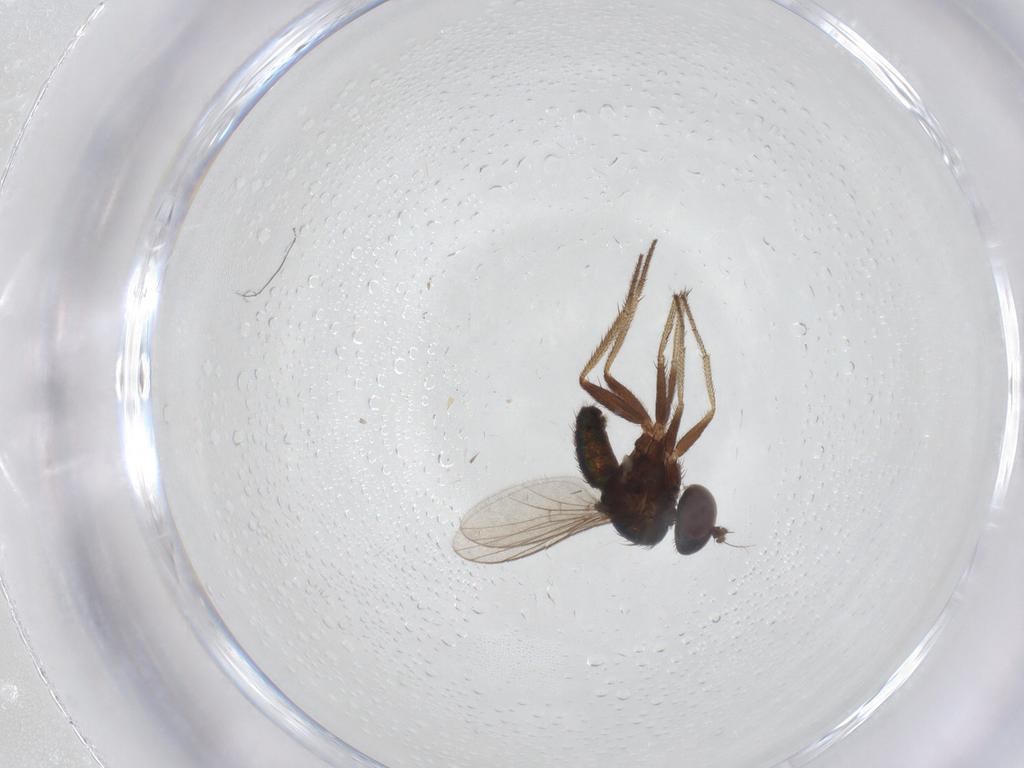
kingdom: Animalia
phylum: Arthropoda
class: Insecta
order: Diptera
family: Dolichopodidae
